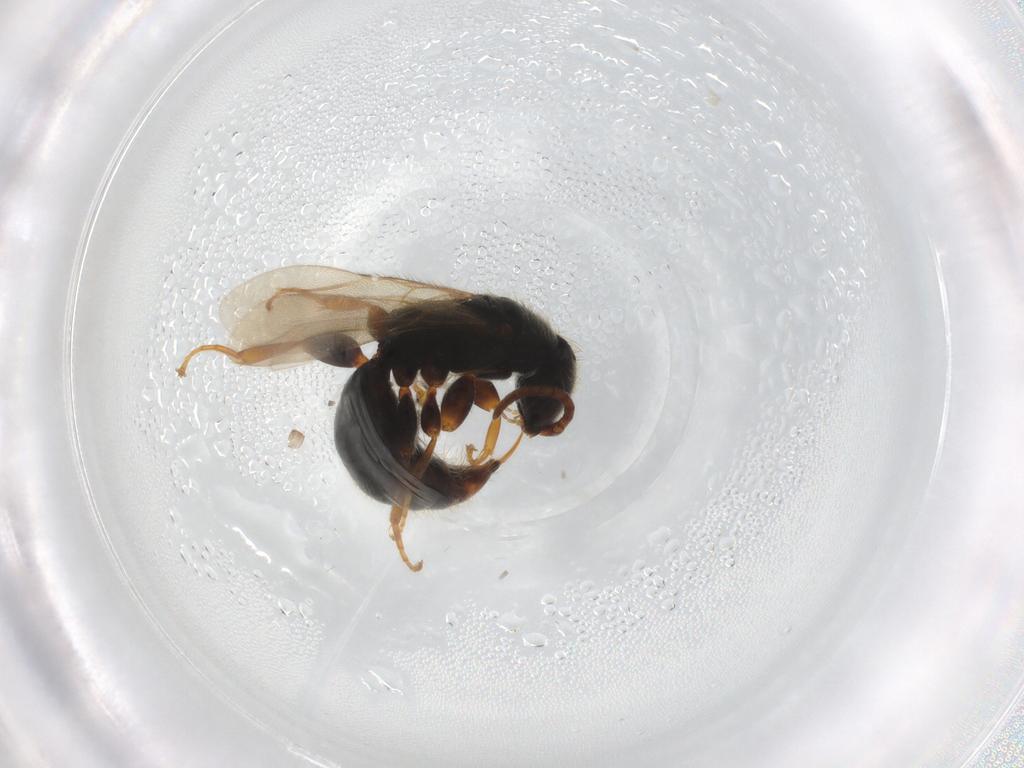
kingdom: Animalia
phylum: Arthropoda
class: Insecta
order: Hymenoptera
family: Bethylidae
